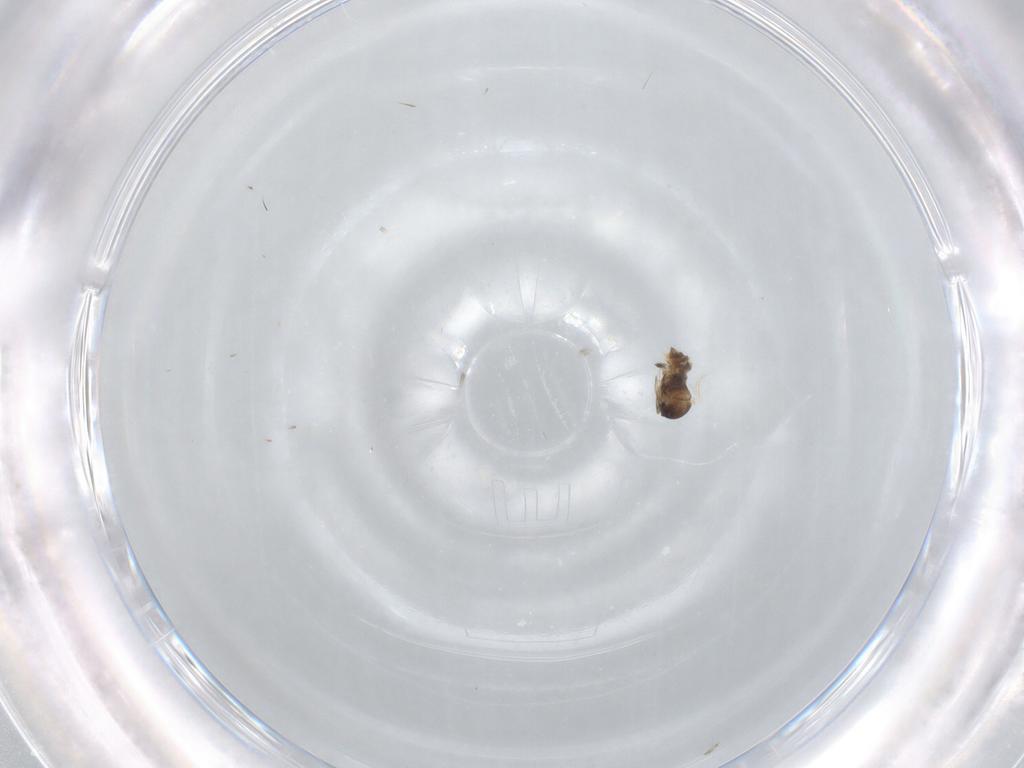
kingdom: Animalia
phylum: Arthropoda
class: Insecta
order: Diptera
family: Cecidomyiidae
